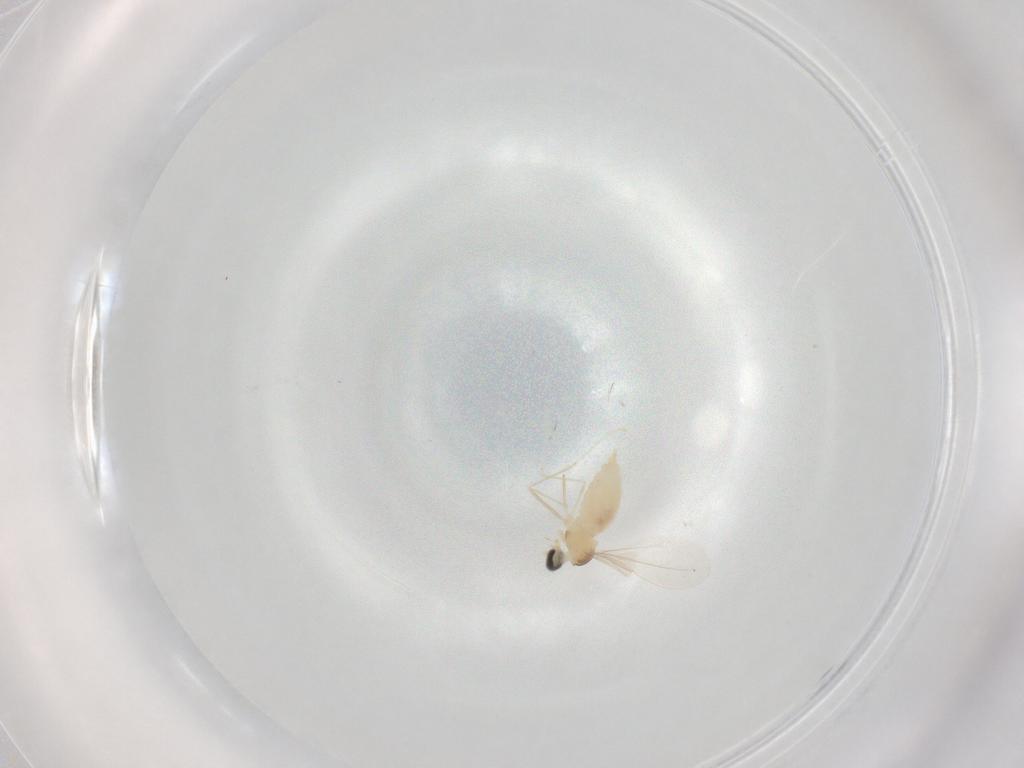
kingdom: Animalia
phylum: Arthropoda
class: Insecta
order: Diptera
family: Cecidomyiidae
